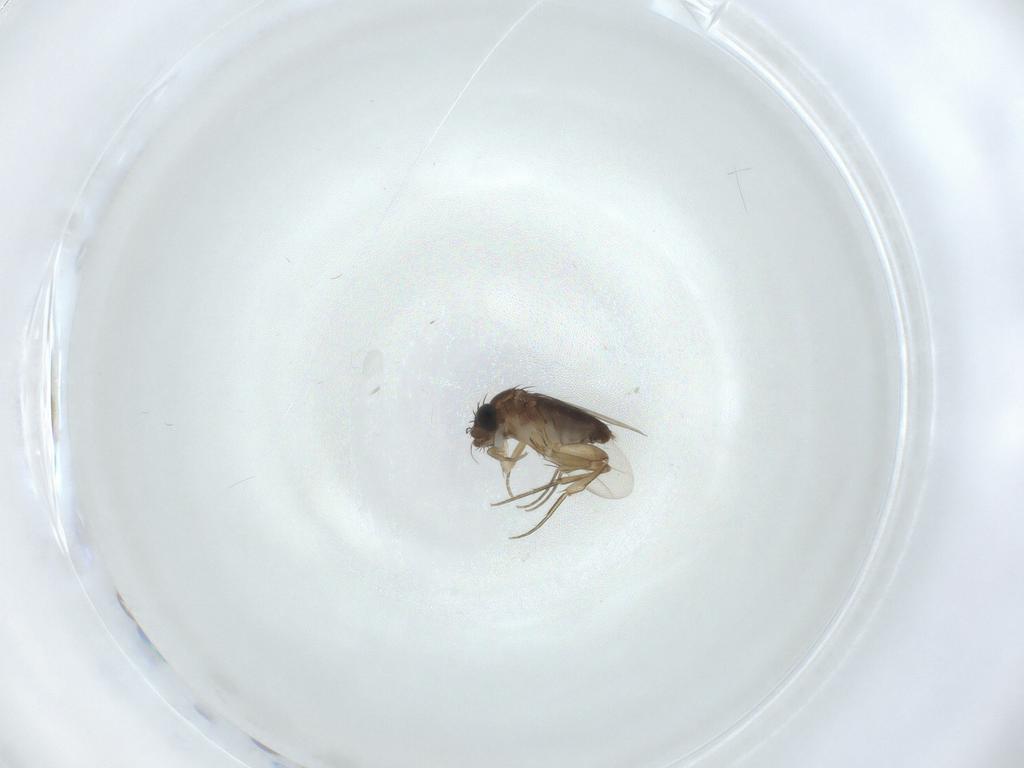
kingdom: Animalia
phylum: Arthropoda
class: Insecta
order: Diptera
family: Phoridae
